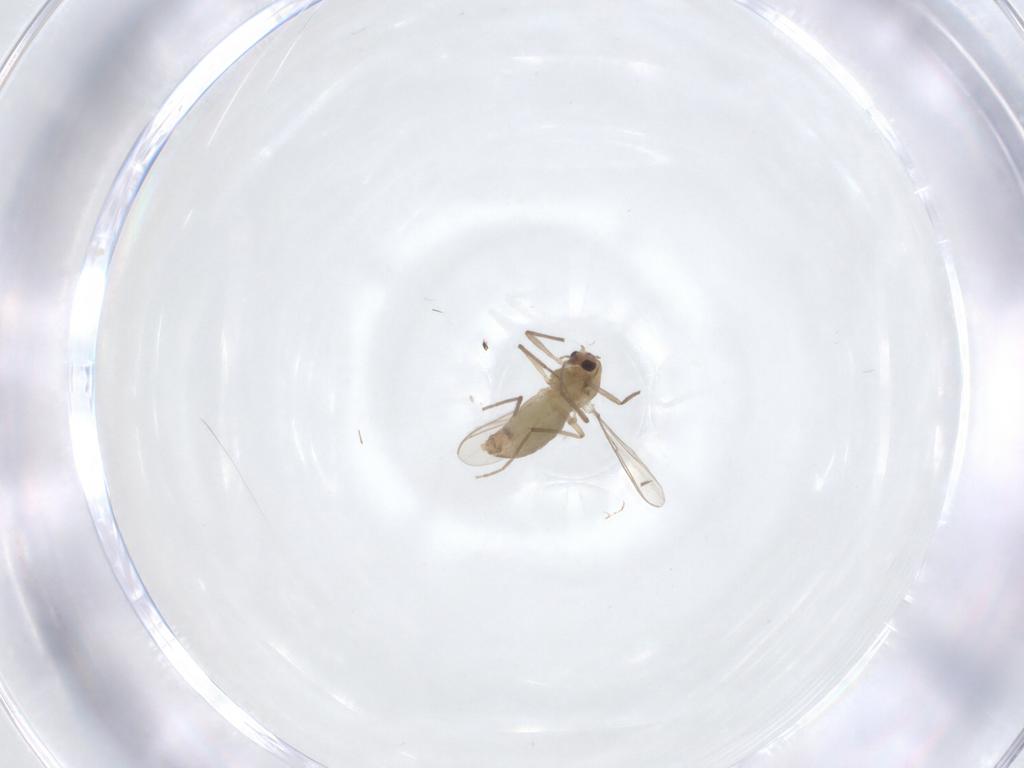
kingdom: Animalia
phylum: Arthropoda
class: Insecta
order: Diptera
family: Chironomidae
